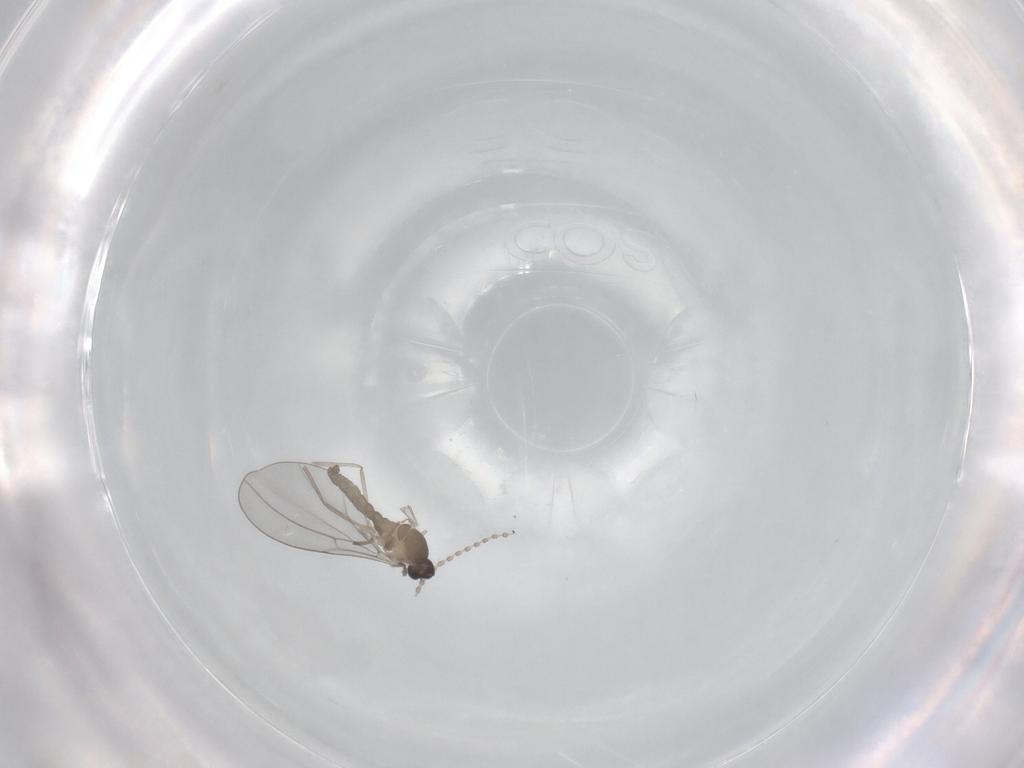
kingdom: Animalia
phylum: Arthropoda
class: Insecta
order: Diptera
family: Cecidomyiidae
